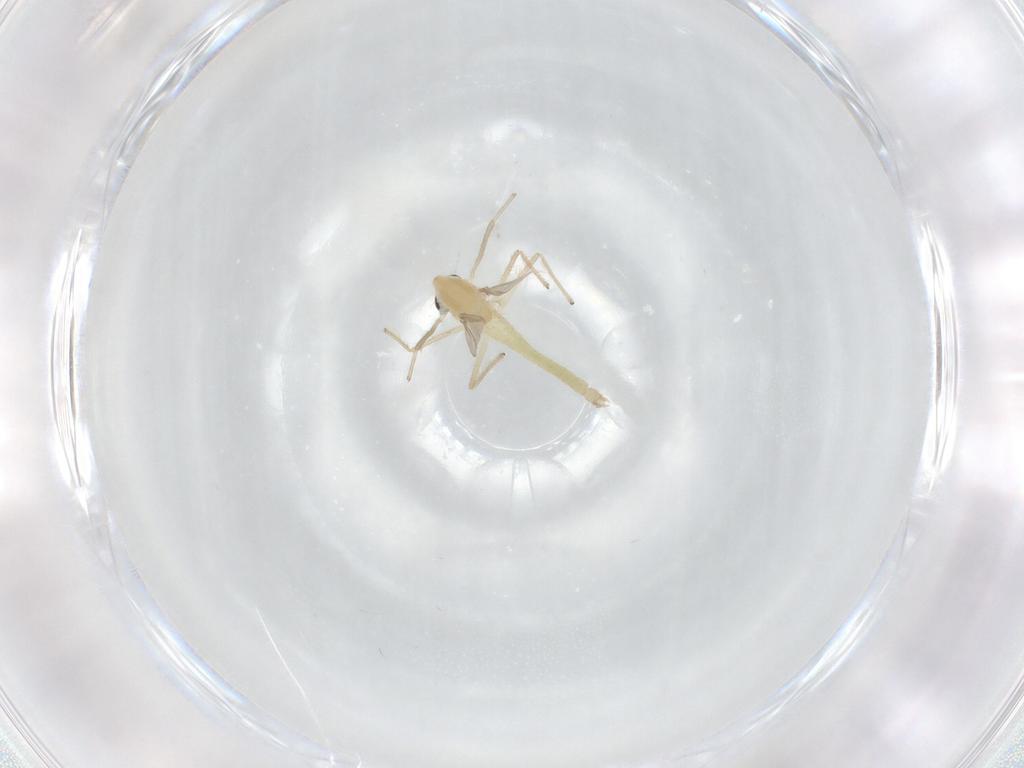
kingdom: Animalia
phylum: Arthropoda
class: Insecta
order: Diptera
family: Chironomidae
